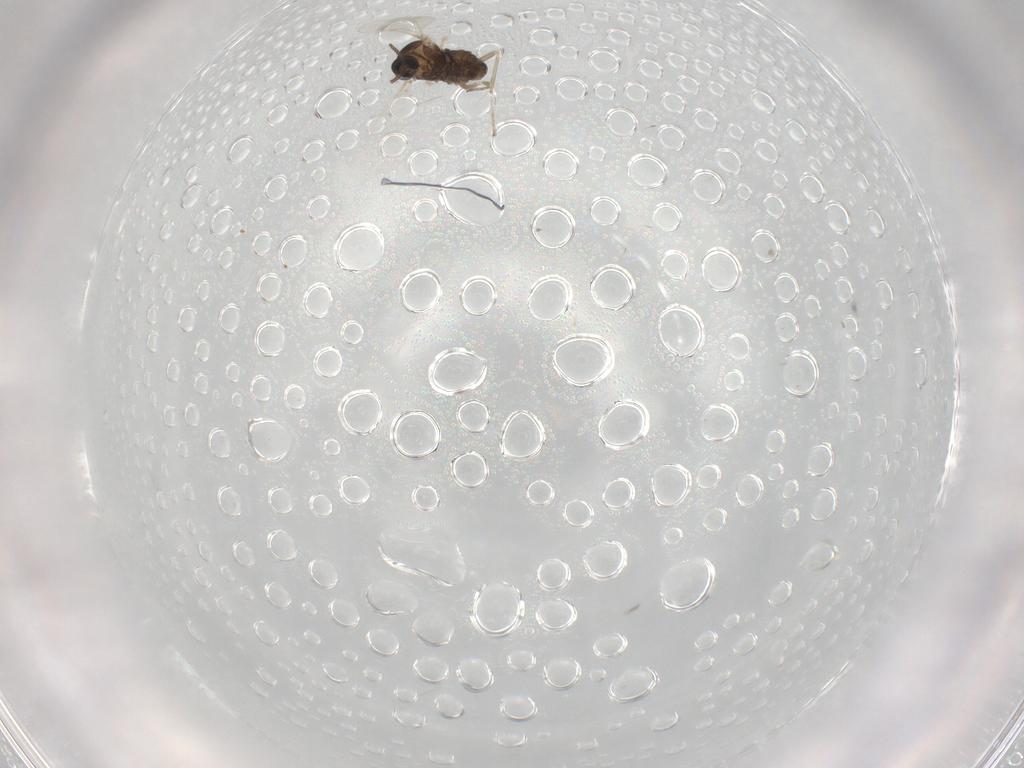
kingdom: Animalia
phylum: Arthropoda
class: Insecta
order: Diptera
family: Cecidomyiidae
